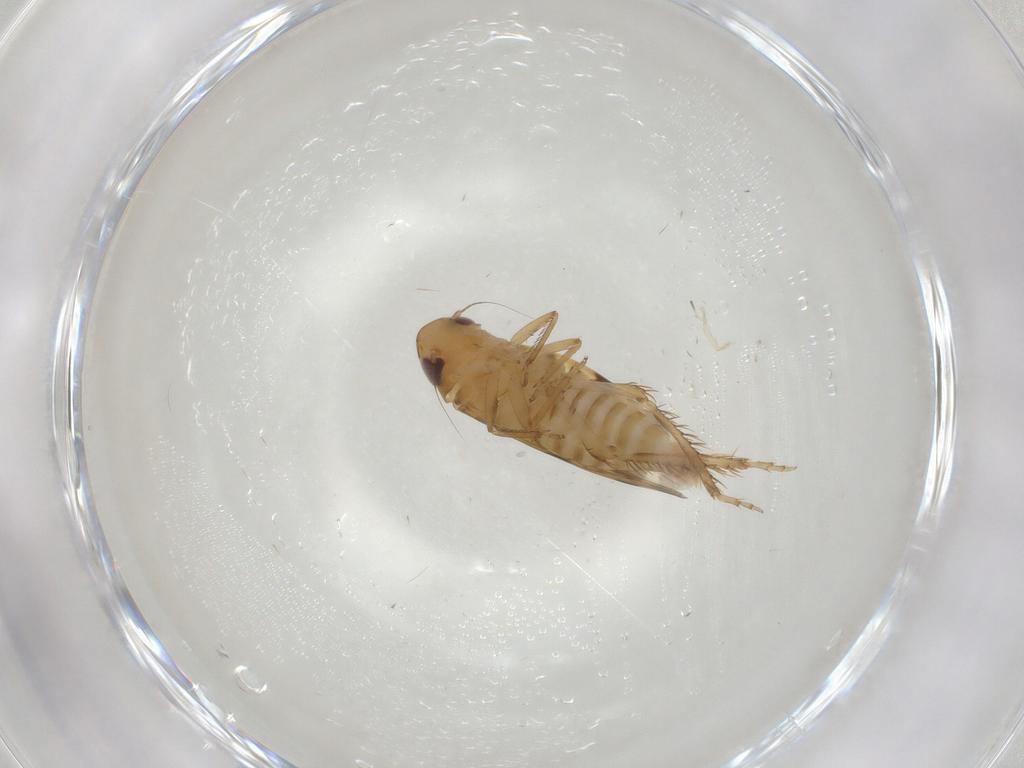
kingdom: Animalia
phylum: Arthropoda
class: Insecta
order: Hemiptera
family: Cicadellidae
